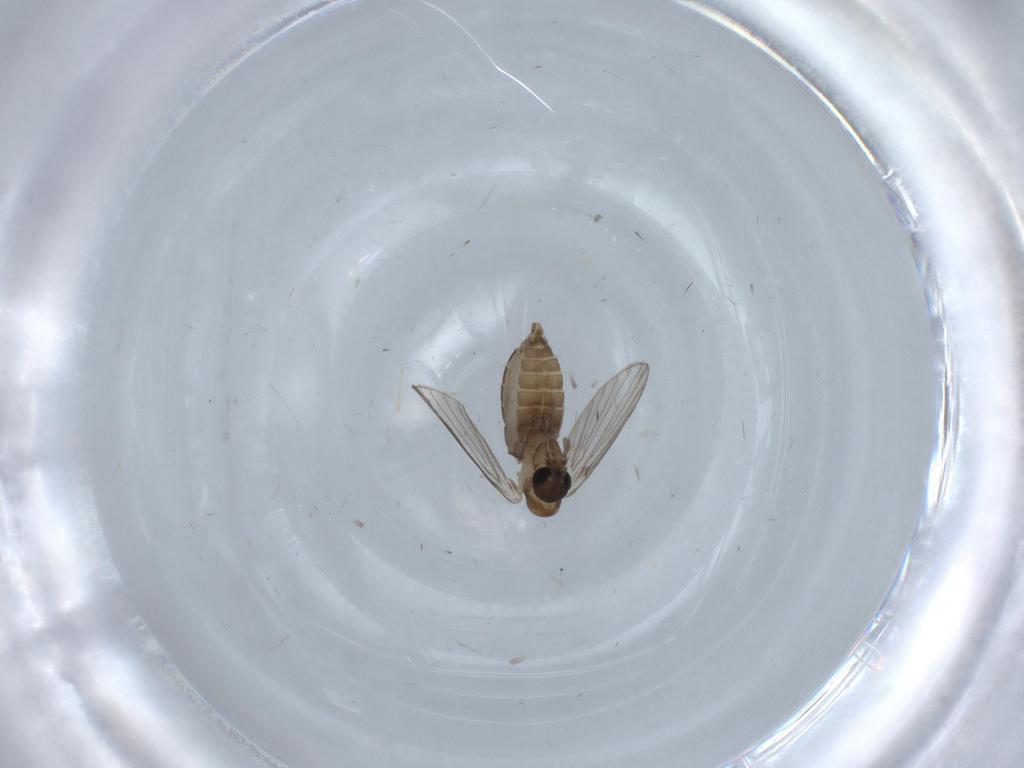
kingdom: Animalia
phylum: Arthropoda
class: Insecta
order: Diptera
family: Psychodidae
